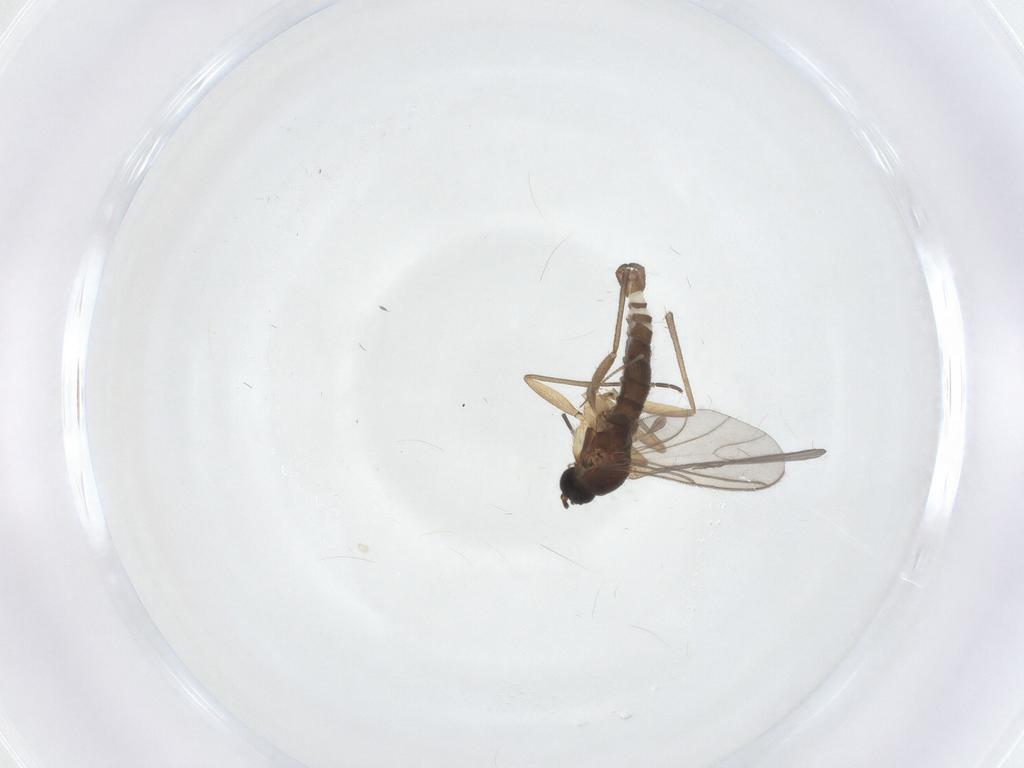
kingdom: Animalia
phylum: Arthropoda
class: Insecta
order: Diptera
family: Sciaridae
